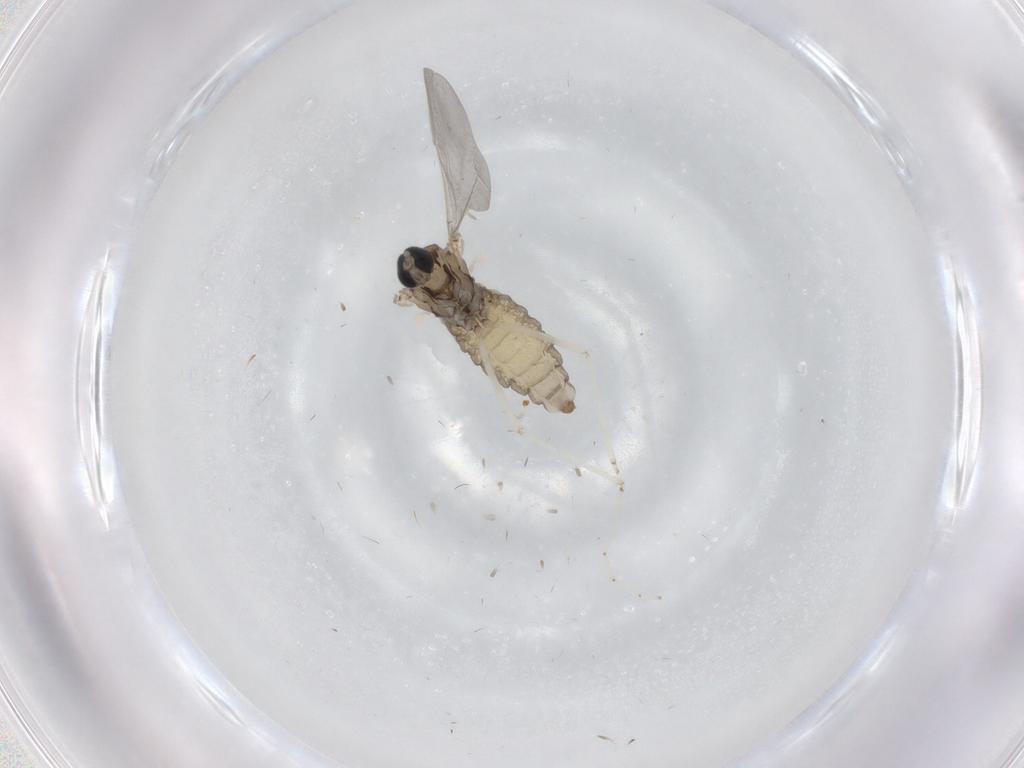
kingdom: Animalia
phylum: Arthropoda
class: Insecta
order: Diptera
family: Cecidomyiidae
